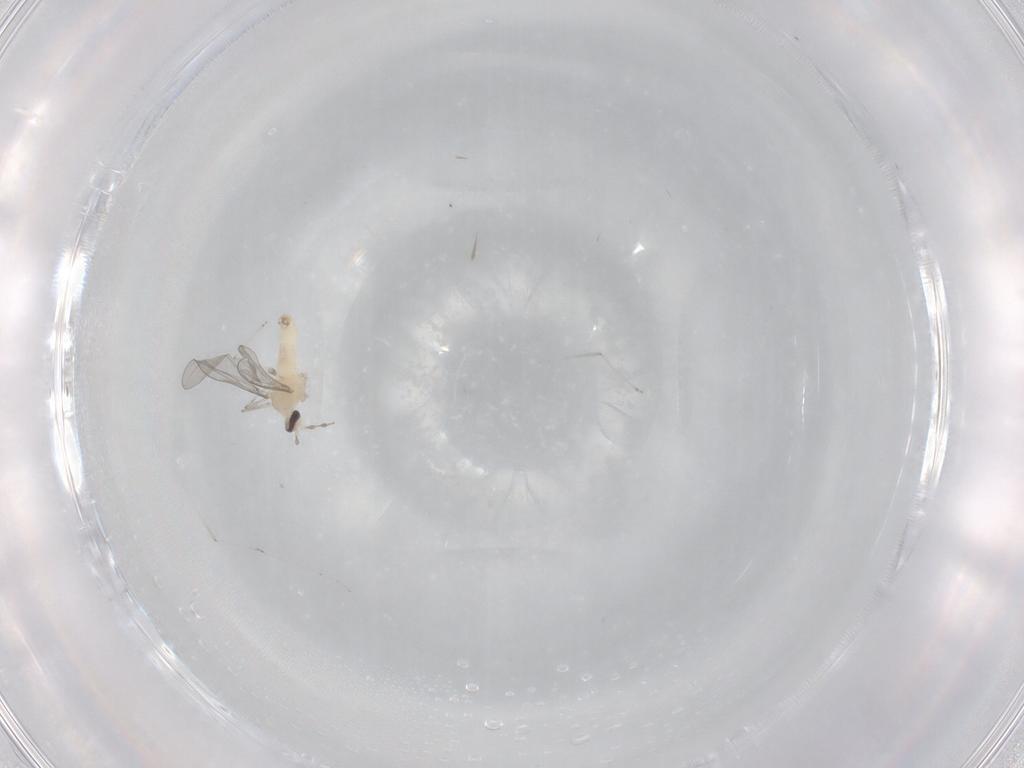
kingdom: Animalia
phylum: Arthropoda
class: Insecta
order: Diptera
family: Cecidomyiidae
